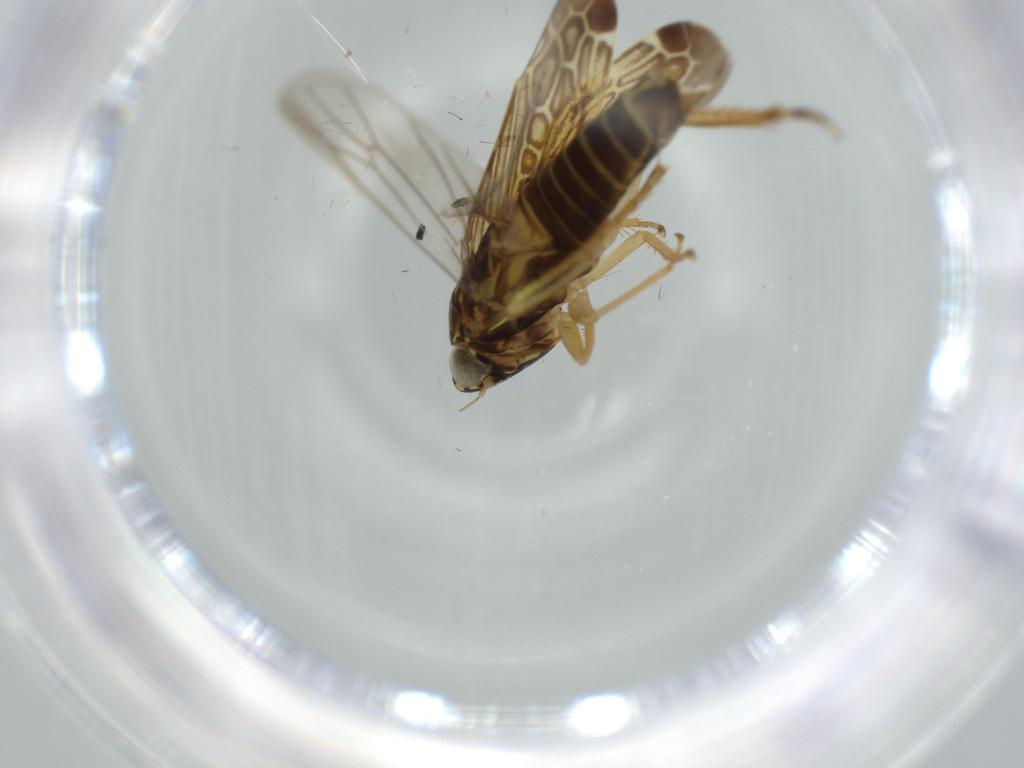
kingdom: Animalia
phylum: Arthropoda
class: Insecta
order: Hemiptera
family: Cicadellidae
